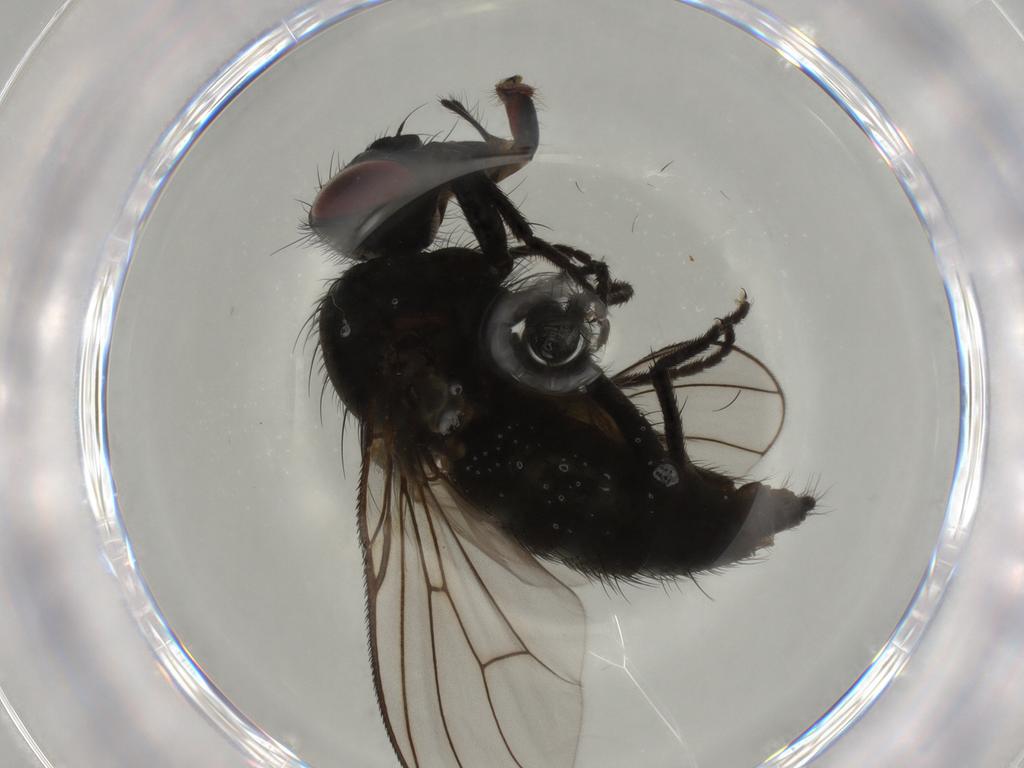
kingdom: Animalia
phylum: Arthropoda
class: Insecta
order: Diptera
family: Muscidae
